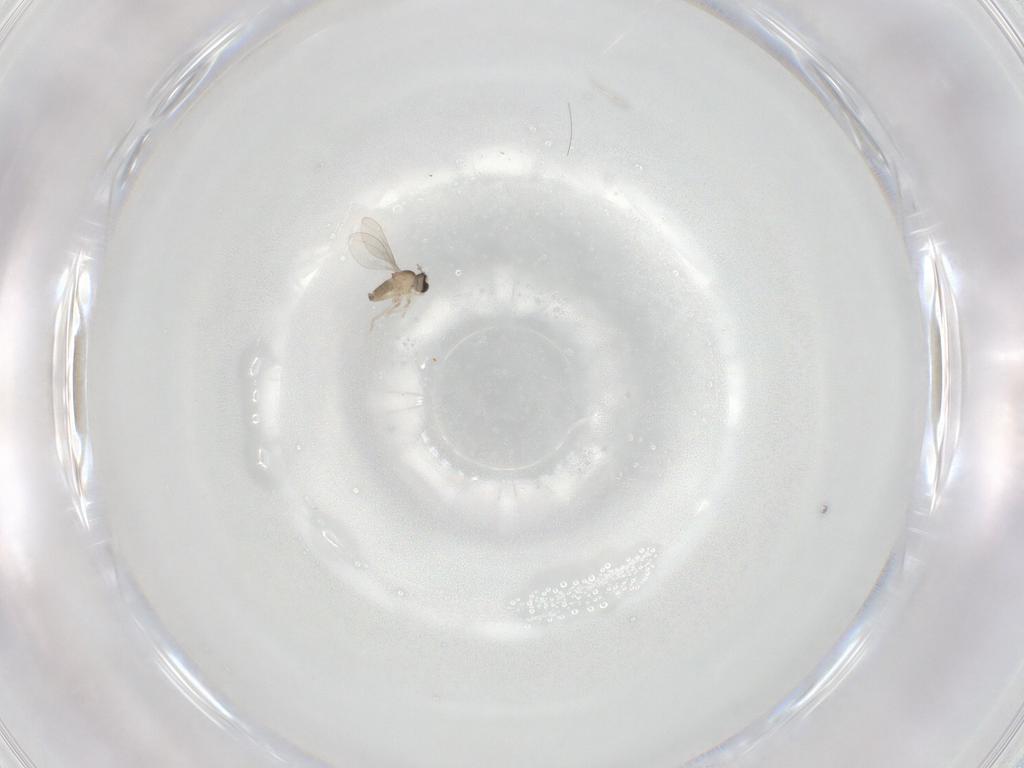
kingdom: Animalia
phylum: Arthropoda
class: Insecta
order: Diptera
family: Cecidomyiidae
